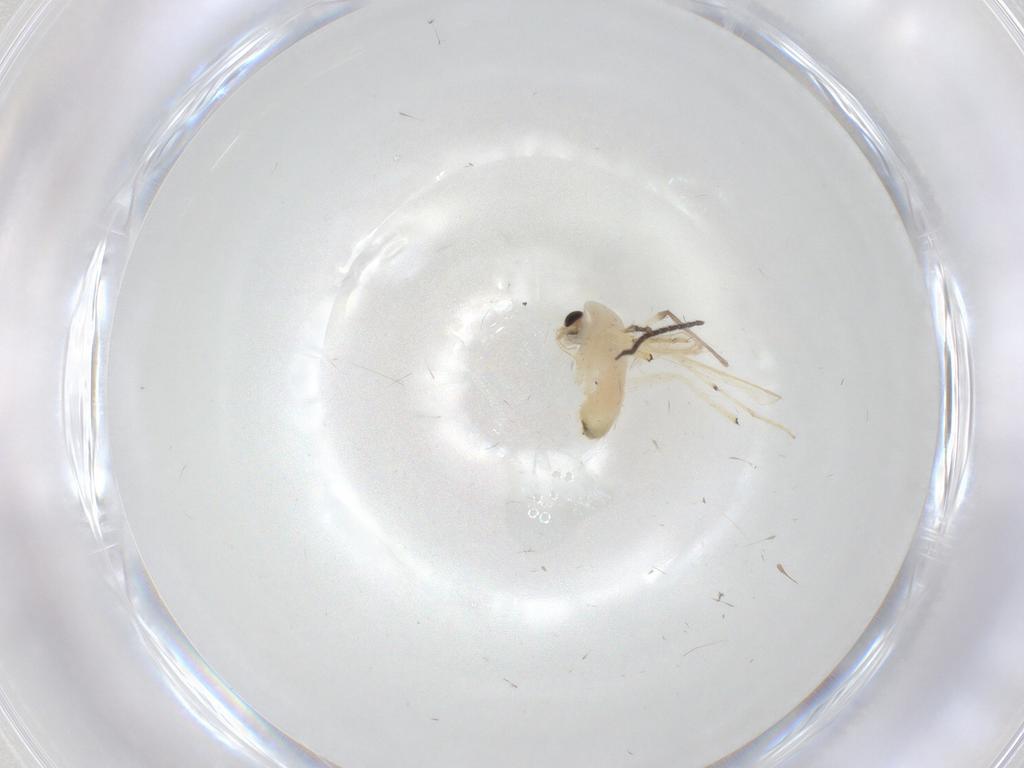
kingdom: Animalia
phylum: Arthropoda
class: Insecta
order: Diptera
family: Chironomidae
